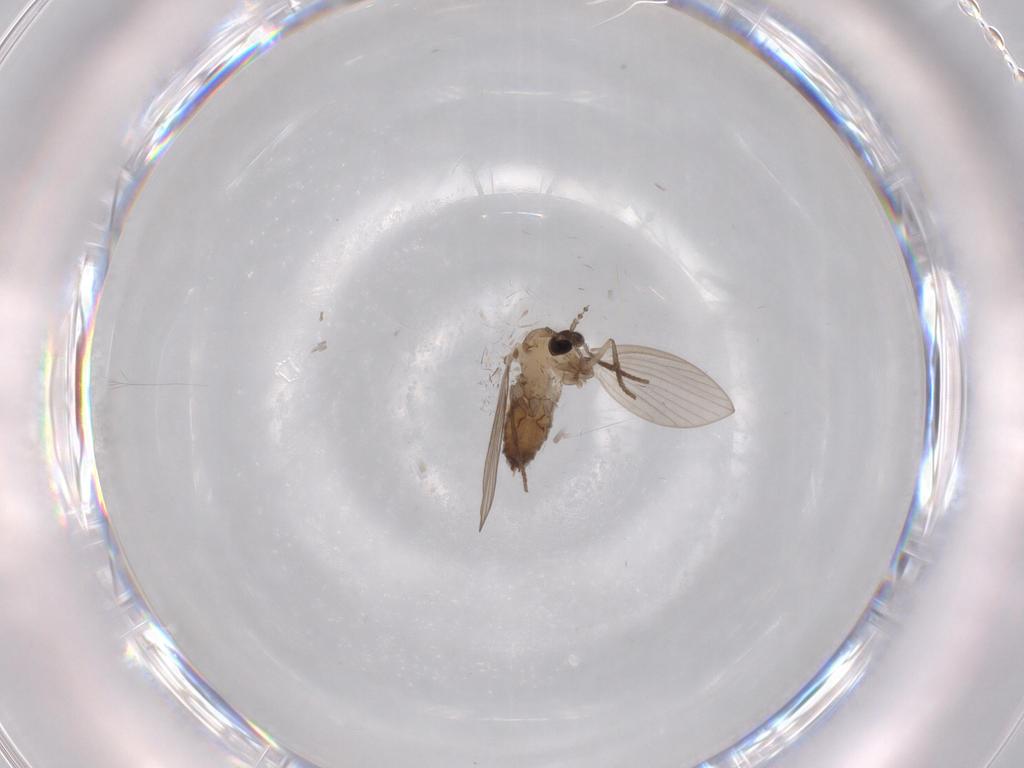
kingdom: Animalia
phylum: Arthropoda
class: Insecta
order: Diptera
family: Psychodidae
